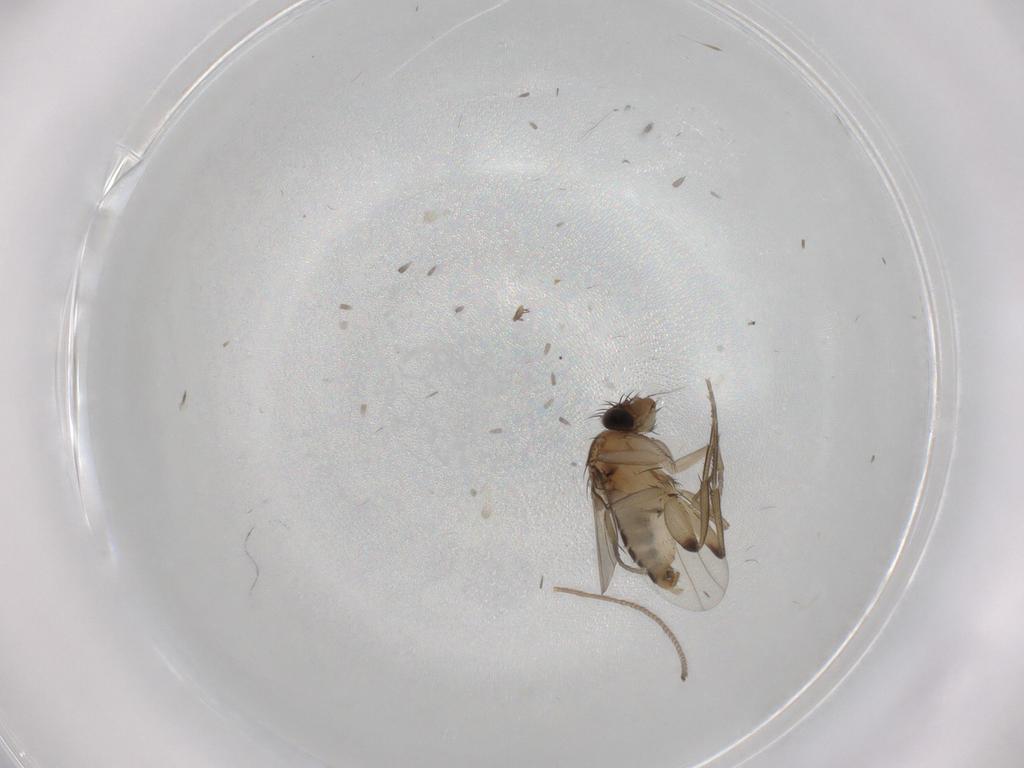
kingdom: Animalia
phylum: Arthropoda
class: Insecta
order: Diptera
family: Phoridae
